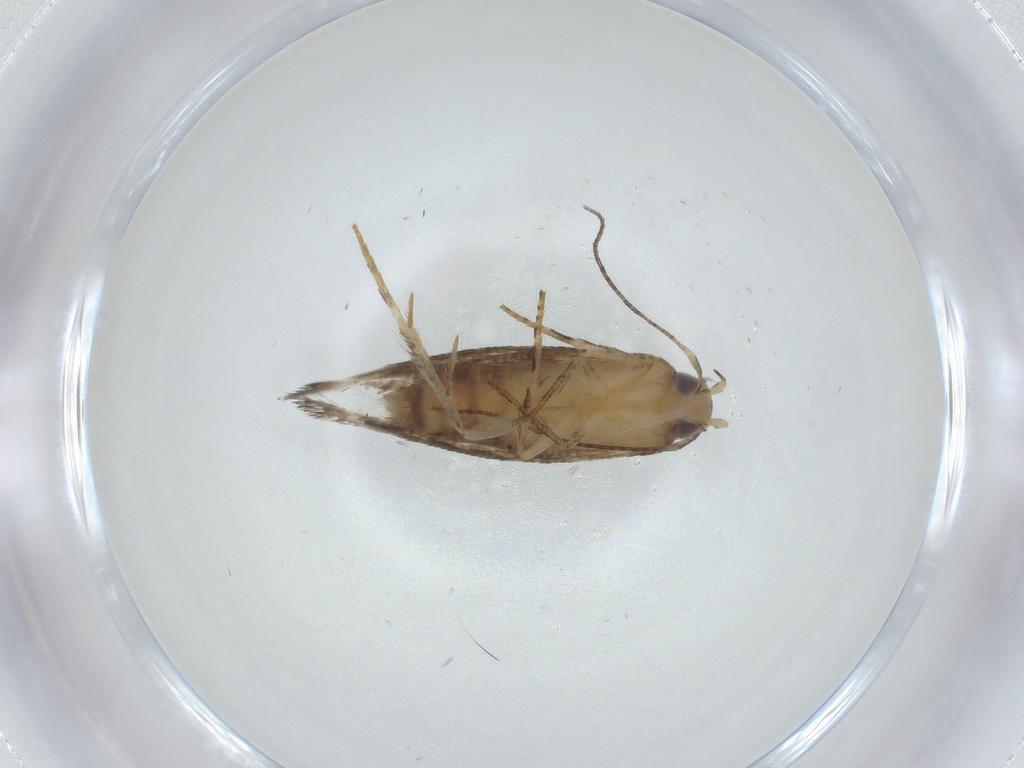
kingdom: Animalia
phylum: Arthropoda
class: Insecta
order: Lepidoptera
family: Elachistidae
